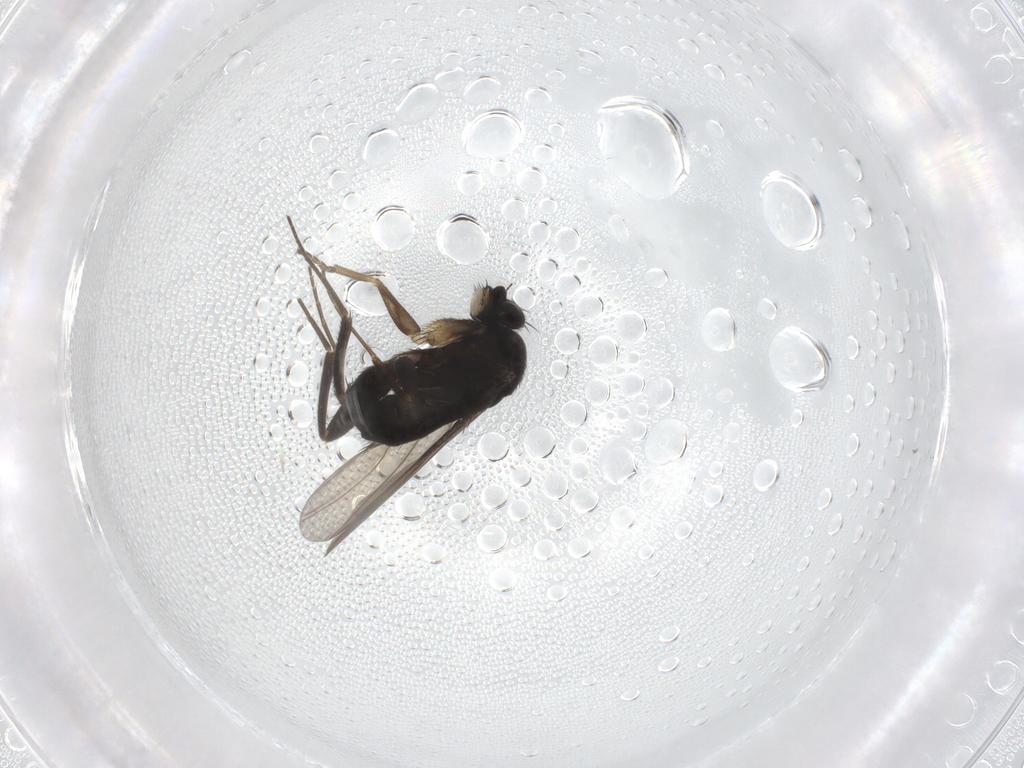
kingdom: Animalia
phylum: Arthropoda
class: Insecta
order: Diptera
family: Phoridae
